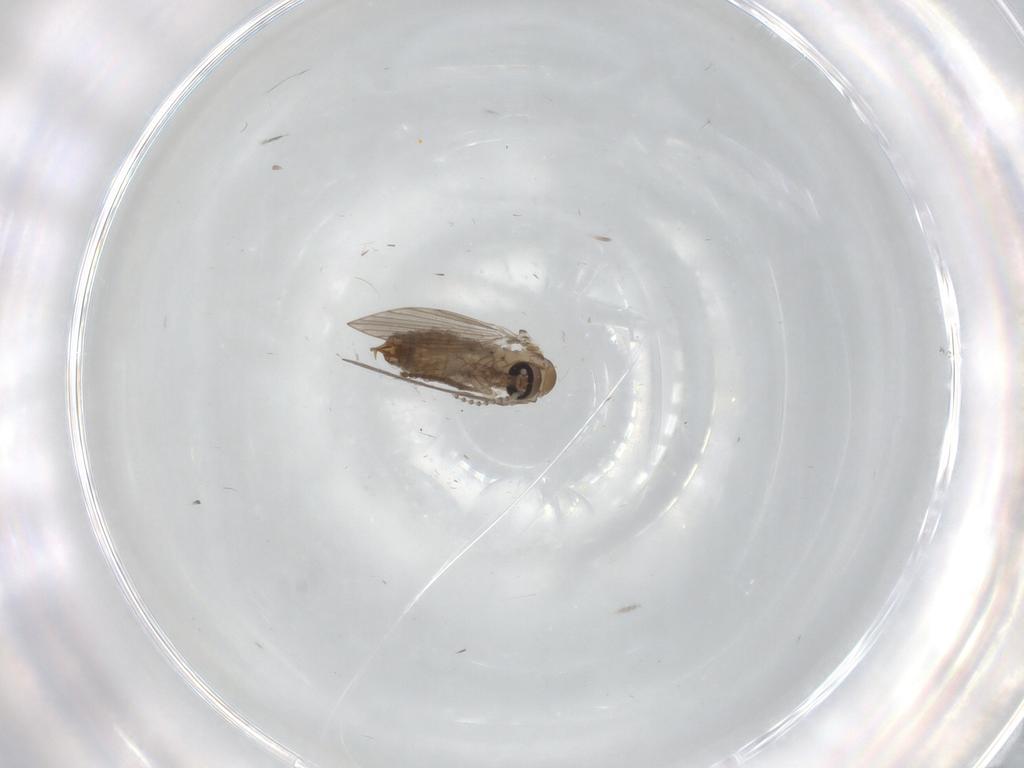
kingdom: Animalia
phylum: Arthropoda
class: Insecta
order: Diptera
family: Psychodidae
